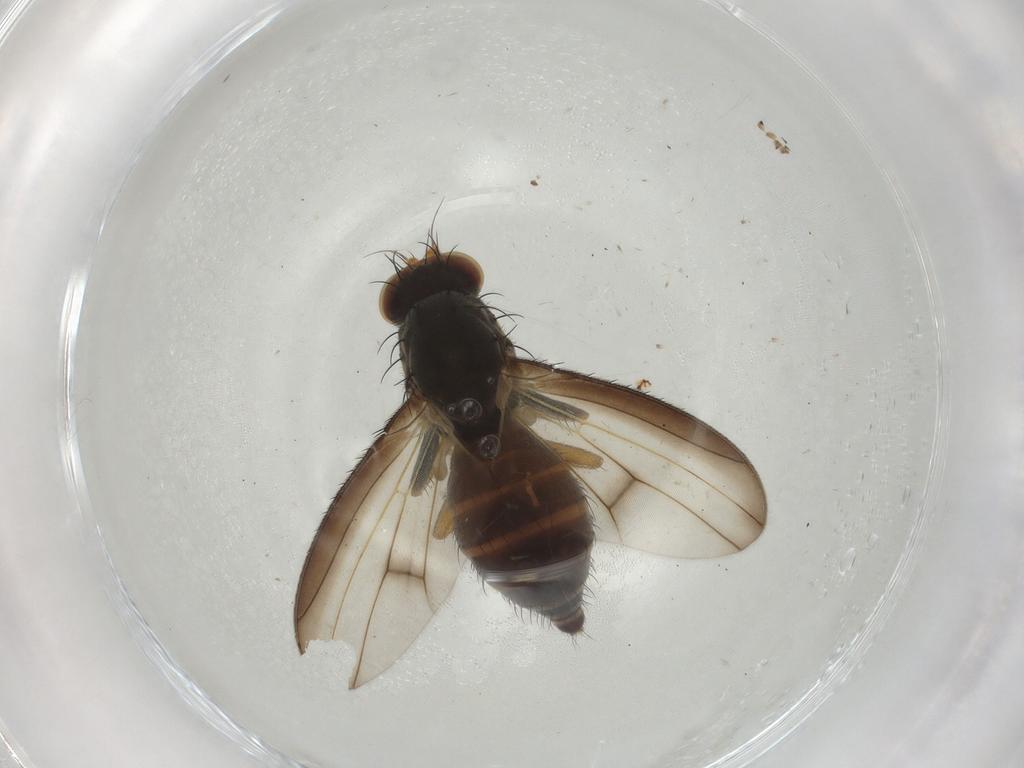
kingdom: Animalia
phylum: Arthropoda
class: Insecta
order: Diptera
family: Heleomyzidae
